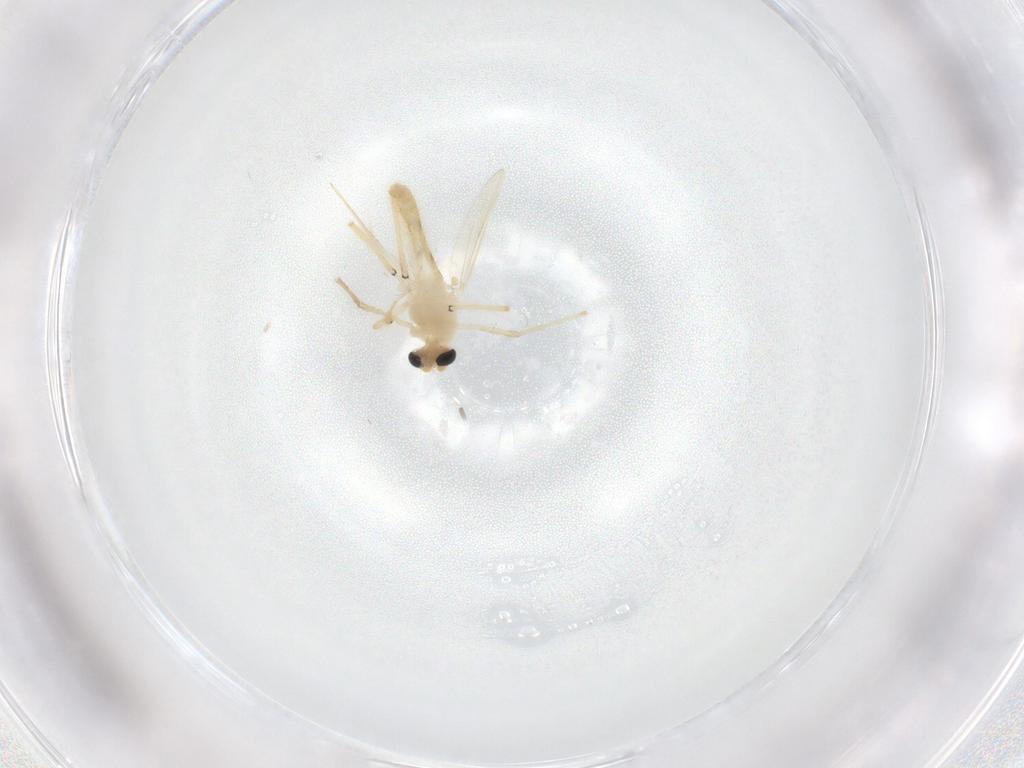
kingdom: Animalia
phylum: Arthropoda
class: Insecta
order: Diptera
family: Chironomidae
